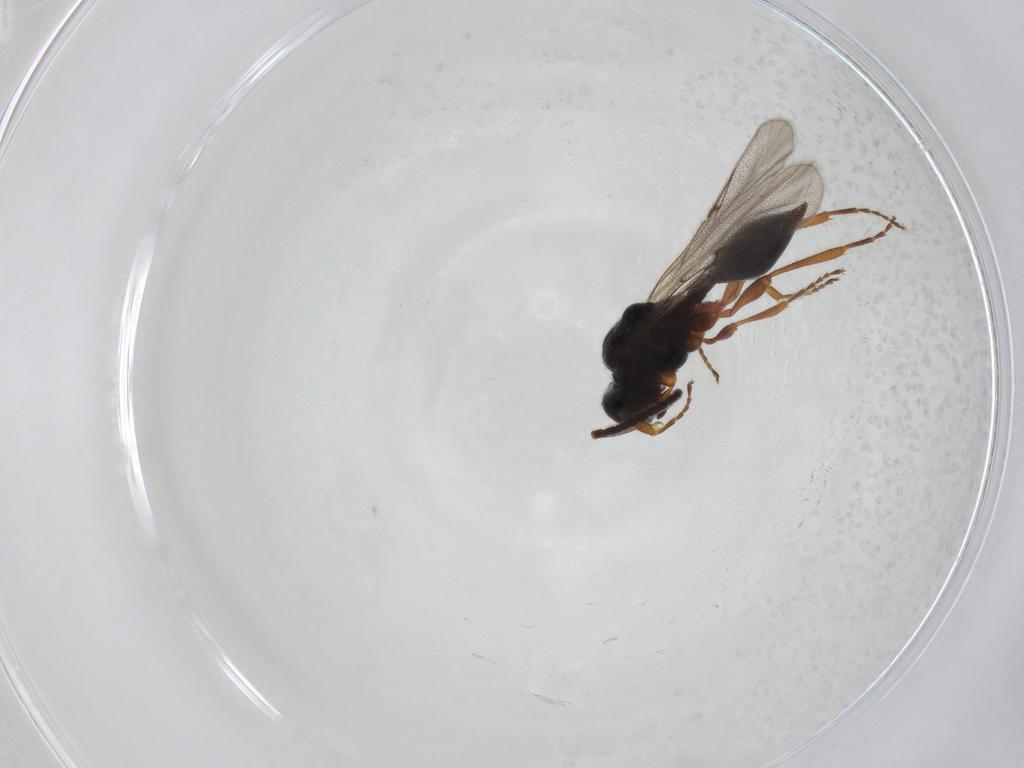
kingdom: Animalia
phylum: Arthropoda
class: Insecta
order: Hymenoptera
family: Diapriidae
